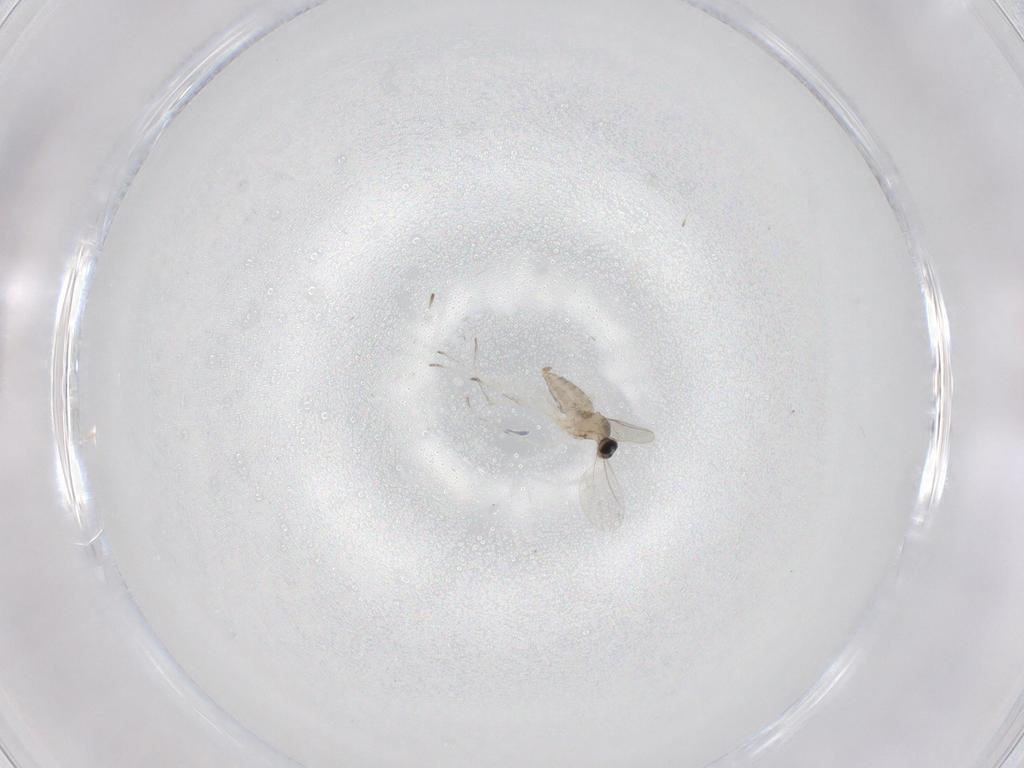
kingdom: Animalia
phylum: Arthropoda
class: Insecta
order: Diptera
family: Cecidomyiidae
